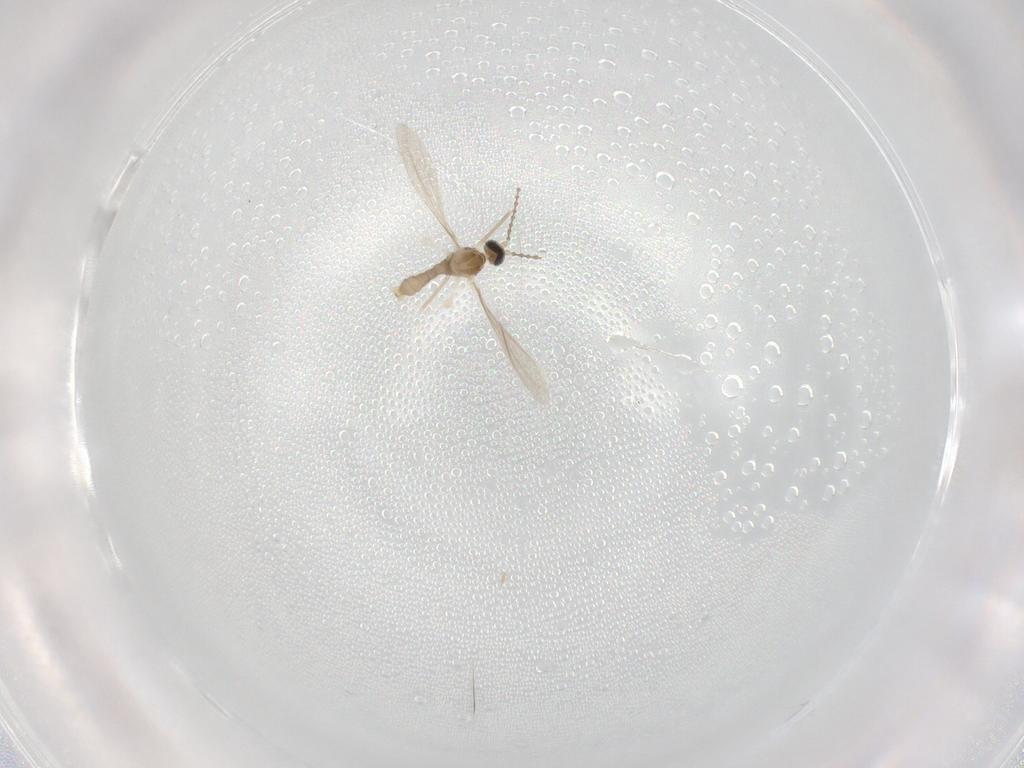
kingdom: Animalia
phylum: Arthropoda
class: Insecta
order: Diptera
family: Cecidomyiidae
